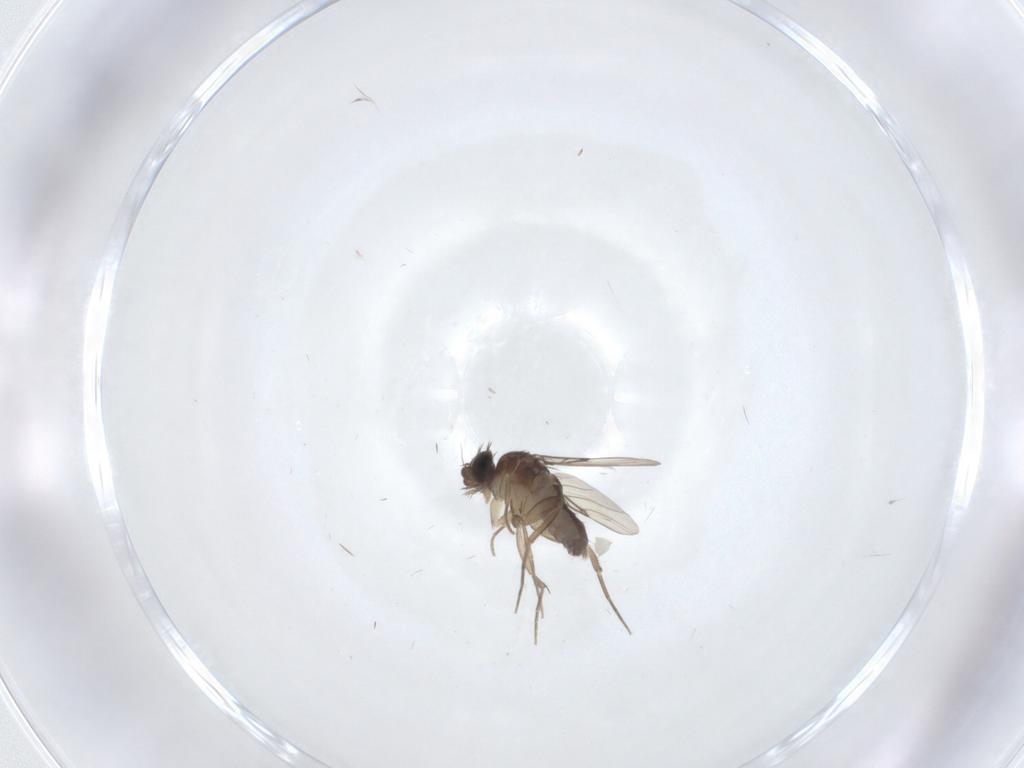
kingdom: Animalia
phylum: Arthropoda
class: Insecta
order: Diptera
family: Phoridae
